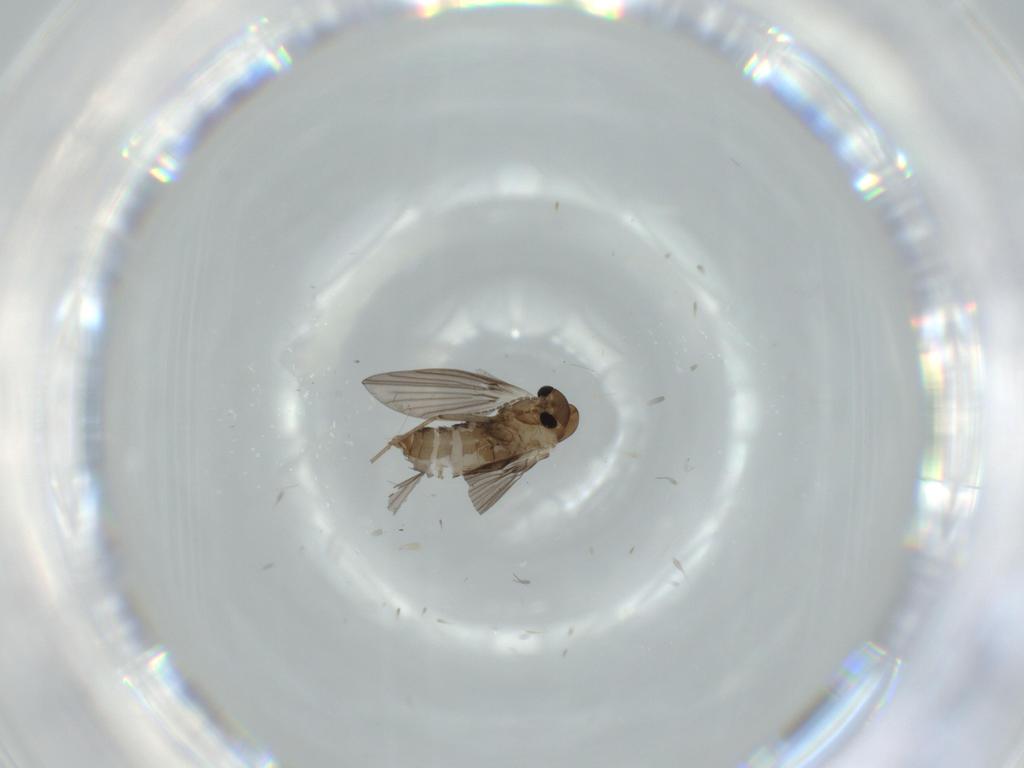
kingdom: Animalia
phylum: Arthropoda
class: Insecta
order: Diptera
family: Psychodidae
